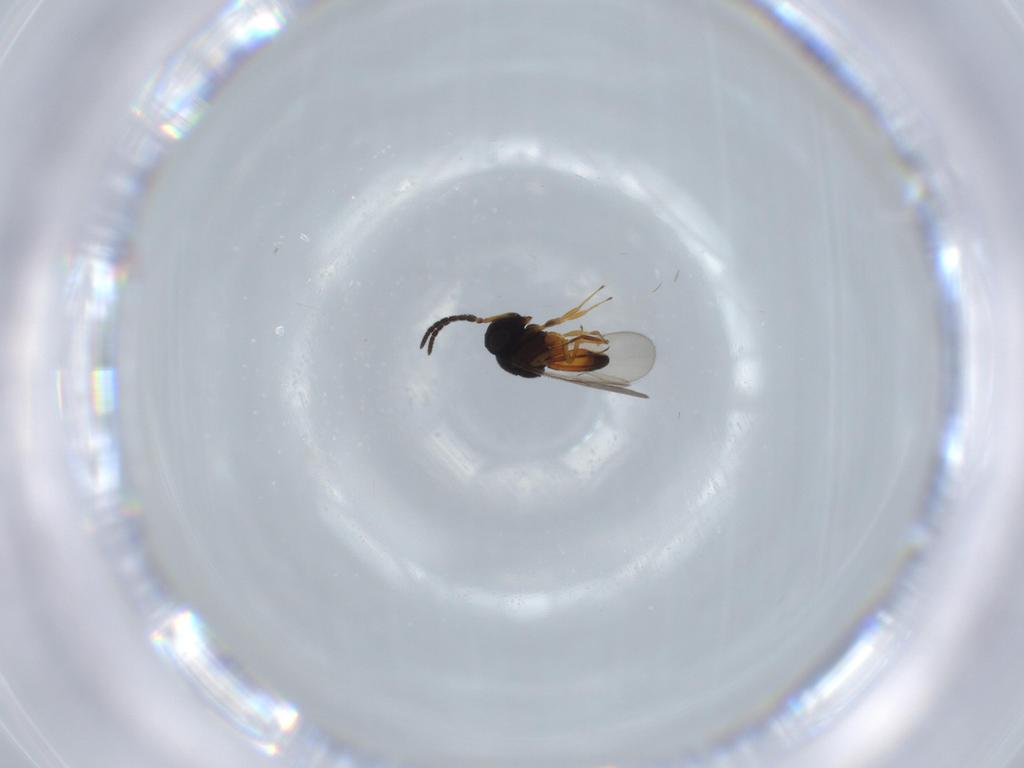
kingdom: Animalia
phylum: Arthropoda
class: Insecta
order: Hymenoptera
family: Scelionidae
